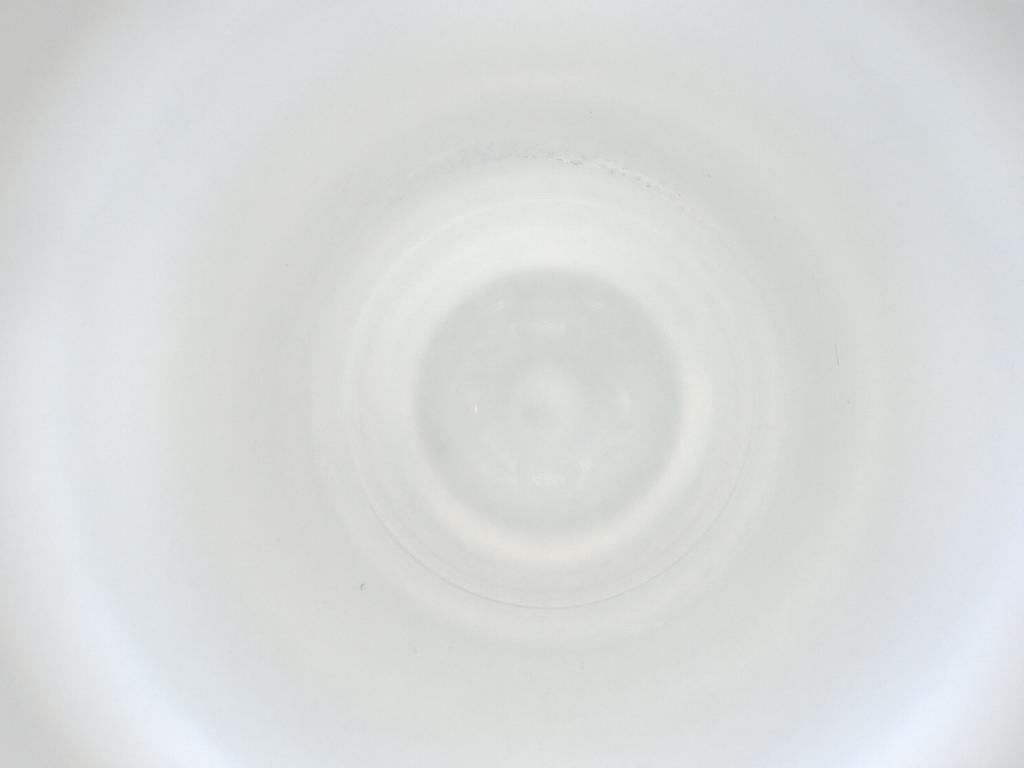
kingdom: Animalia
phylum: Arthropoda
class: Insecta
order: Diptera
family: Cecidomyiidae
